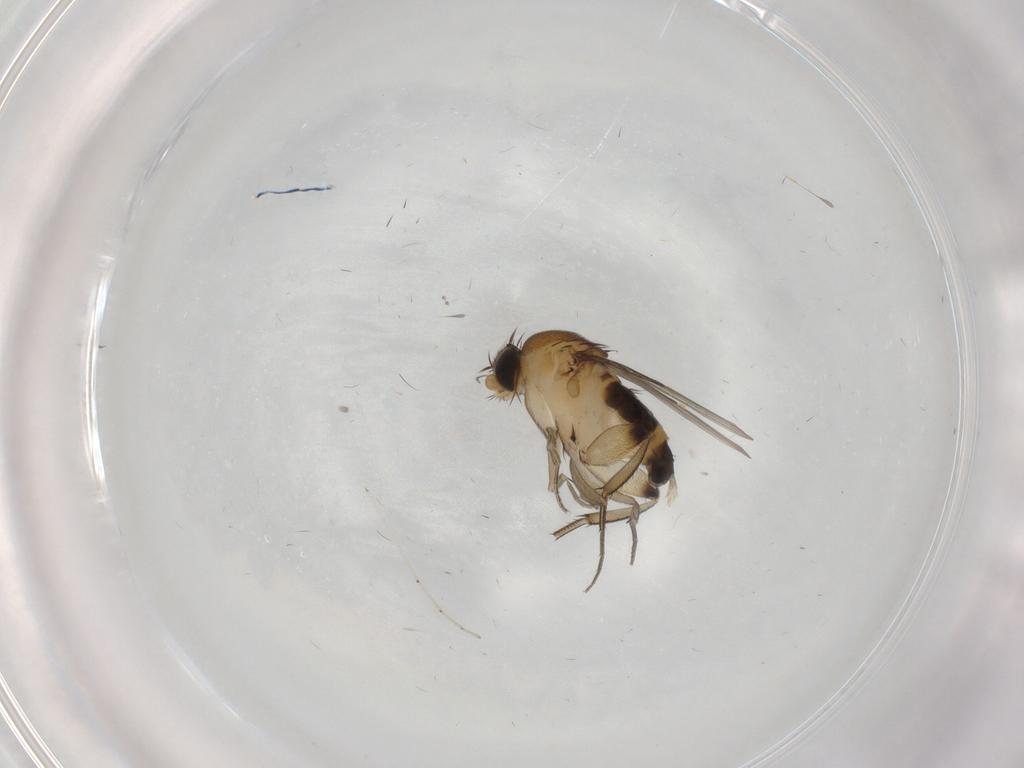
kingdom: Animalia
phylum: Arthropoda
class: Insecta
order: Diptera
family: Phoridae
